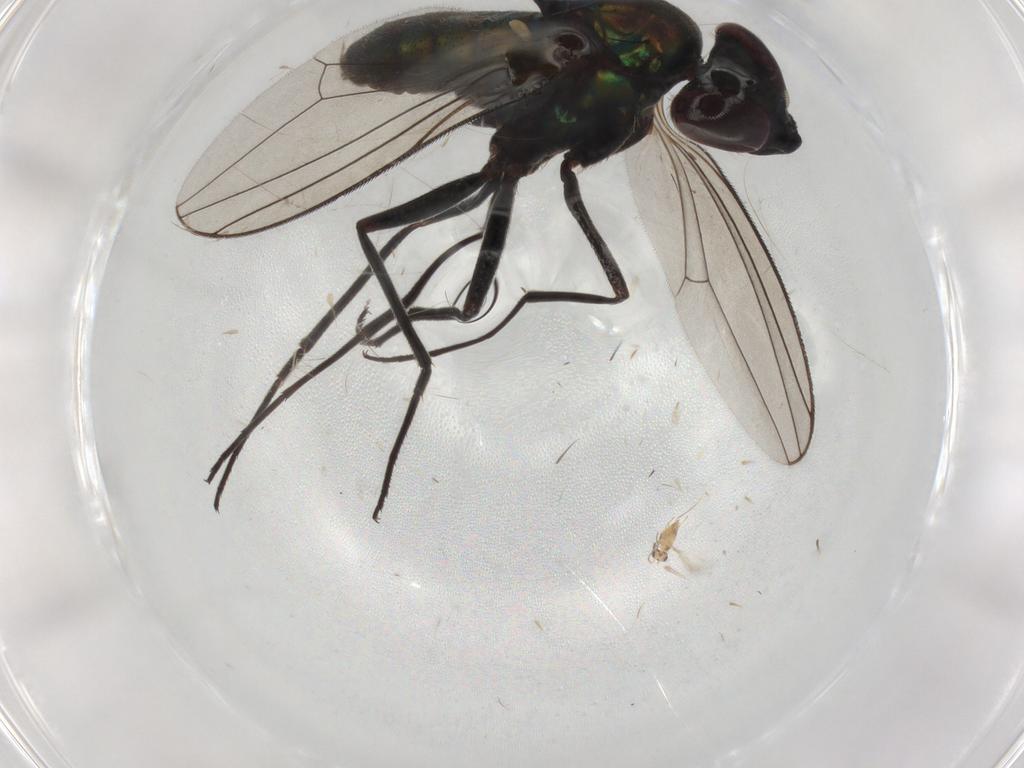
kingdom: Animalia
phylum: Arthropoda
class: Insecta
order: Diptera
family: Dolichopodidae
